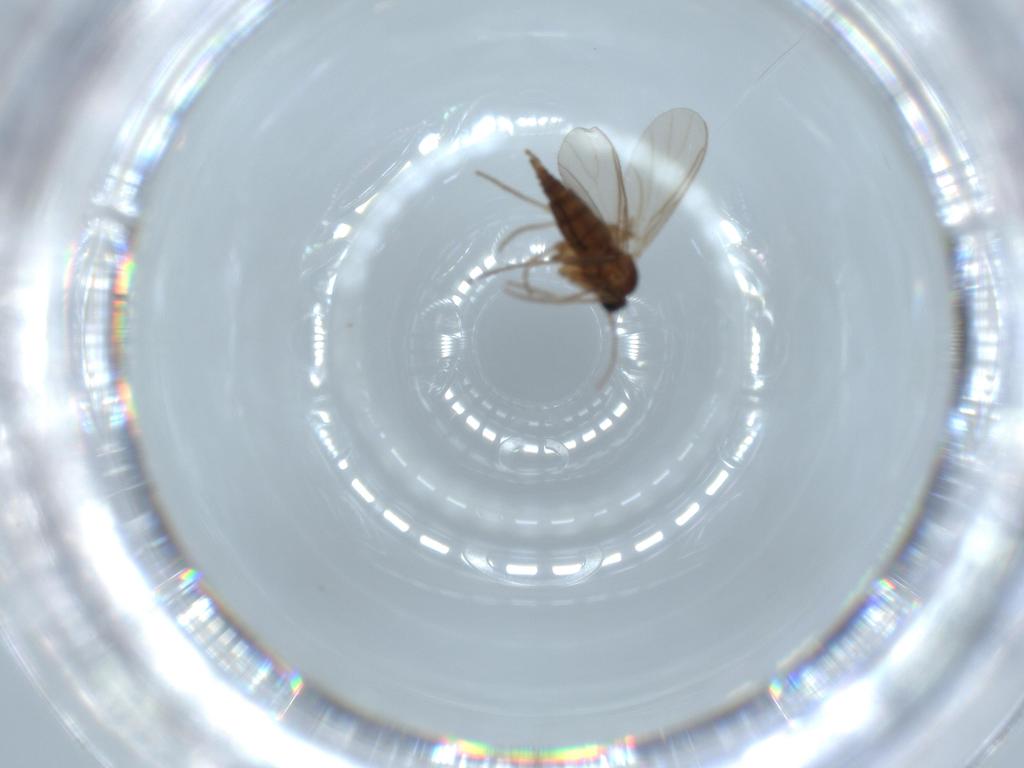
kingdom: Animalia
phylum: Arthropoda
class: Insecta
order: Diptera
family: Sciaridae
